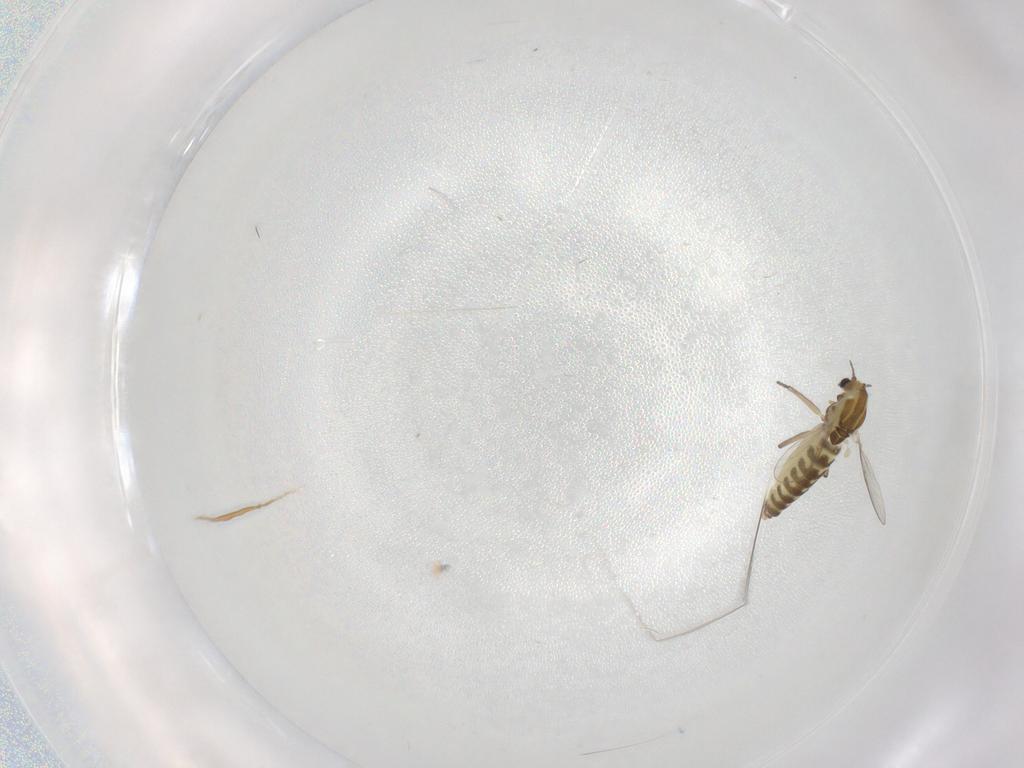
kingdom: Animalia
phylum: Arthropoda
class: Insecta
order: Diptera
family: Chironomidae
